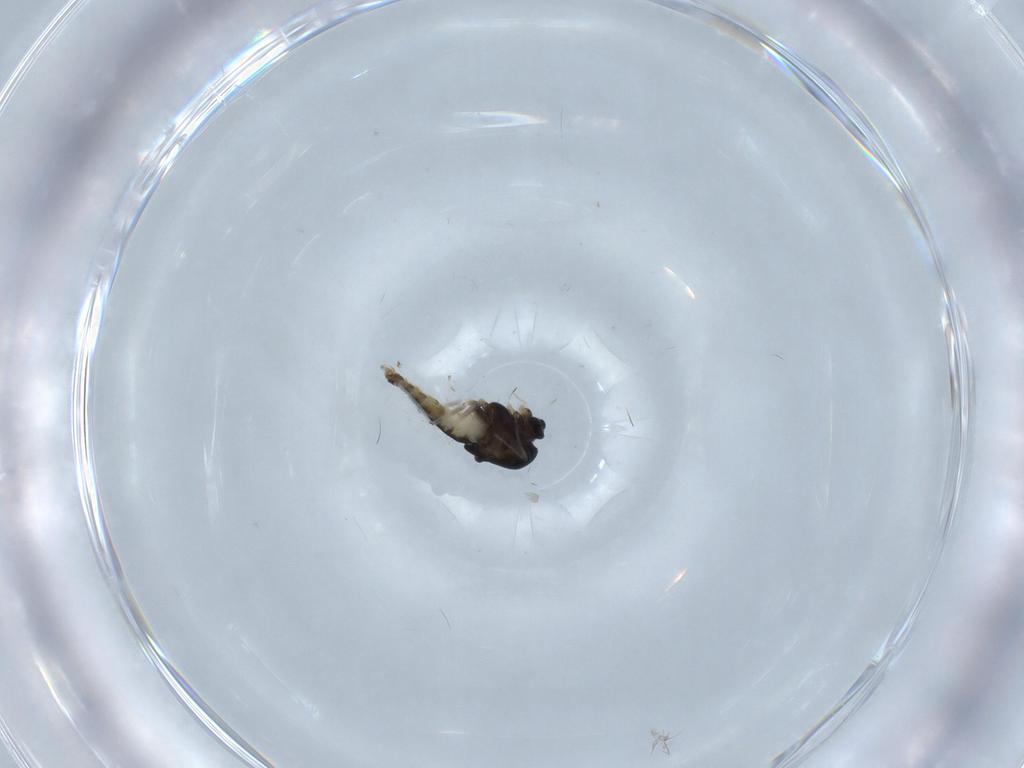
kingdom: Animalia
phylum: Arthropoda
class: Insecta
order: Diptera
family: Chironomidae
